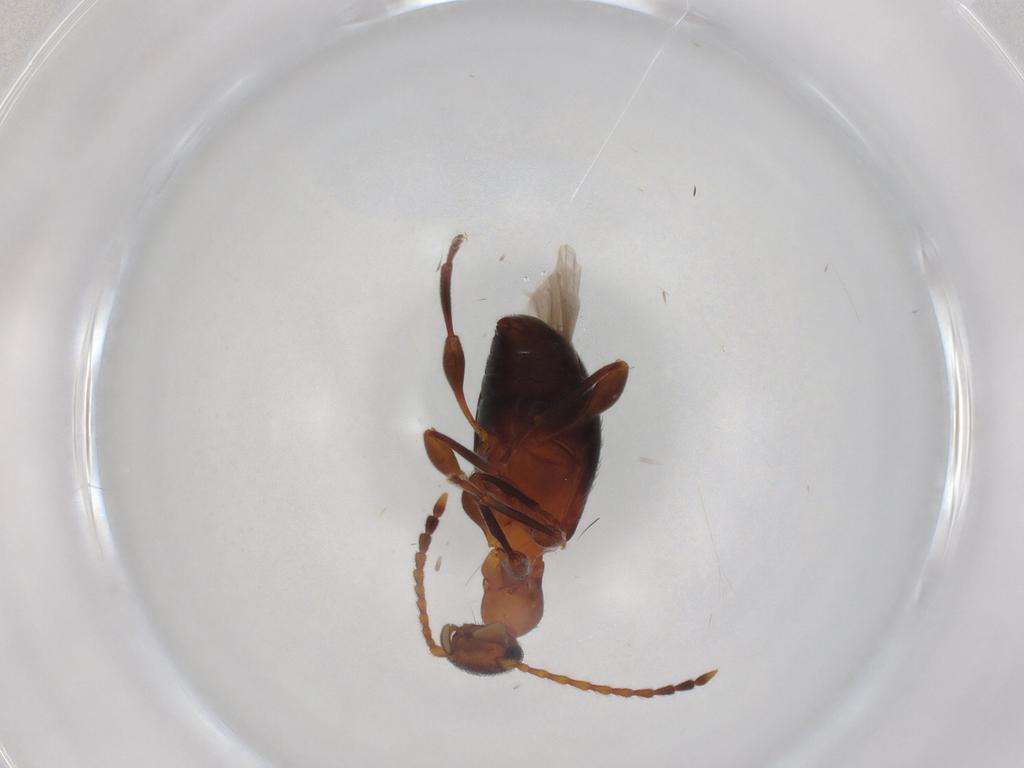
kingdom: Animalia
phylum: Arthropoda
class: Insecta
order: Coleoptera
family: Anthicidae
